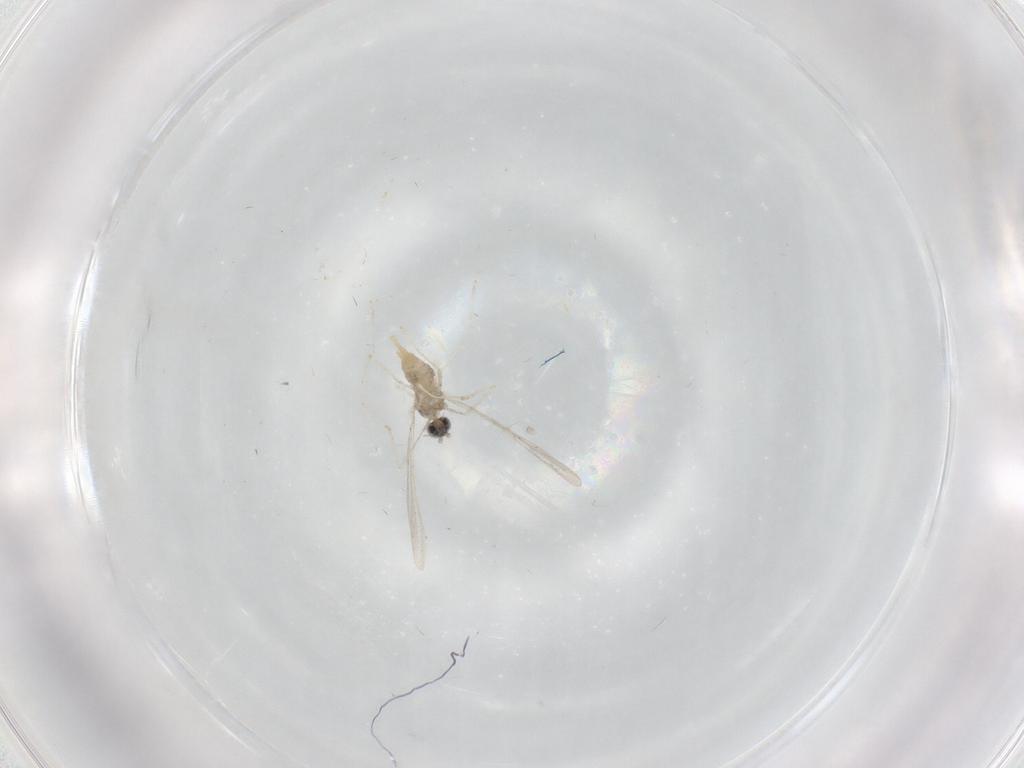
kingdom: Animalia
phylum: Arthropoda
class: Insecta
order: Diptera
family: Cecidomyiidae
